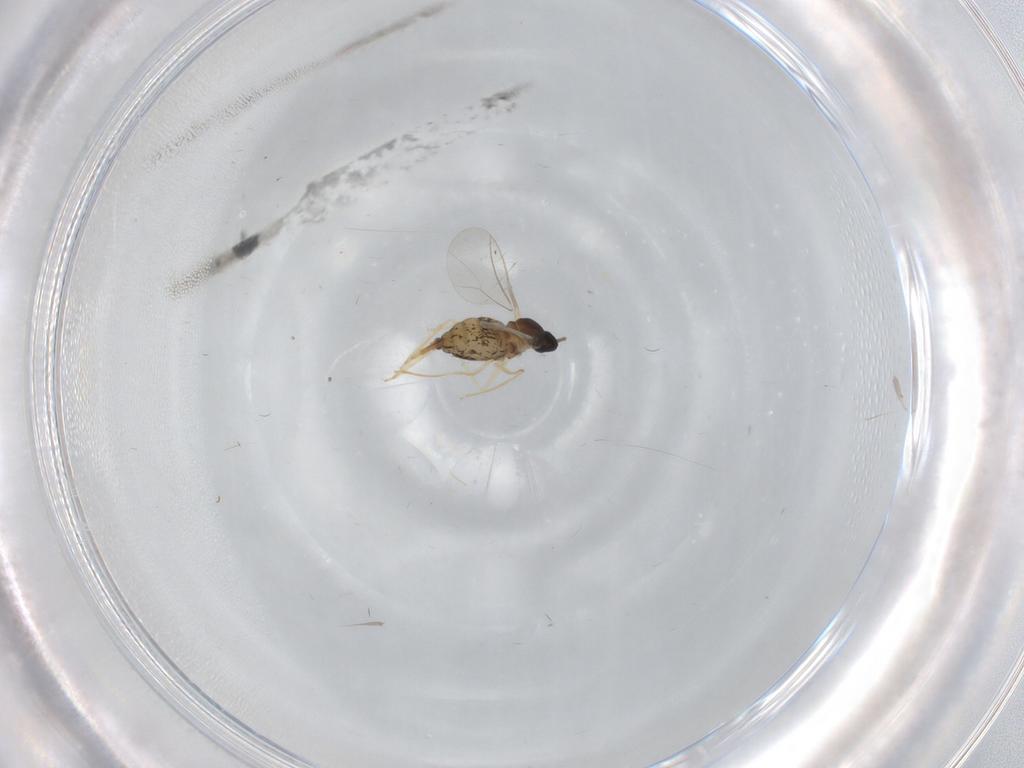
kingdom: Animalia
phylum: Arthropoda
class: Insecta
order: Diptera
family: Cecidomyiidae
